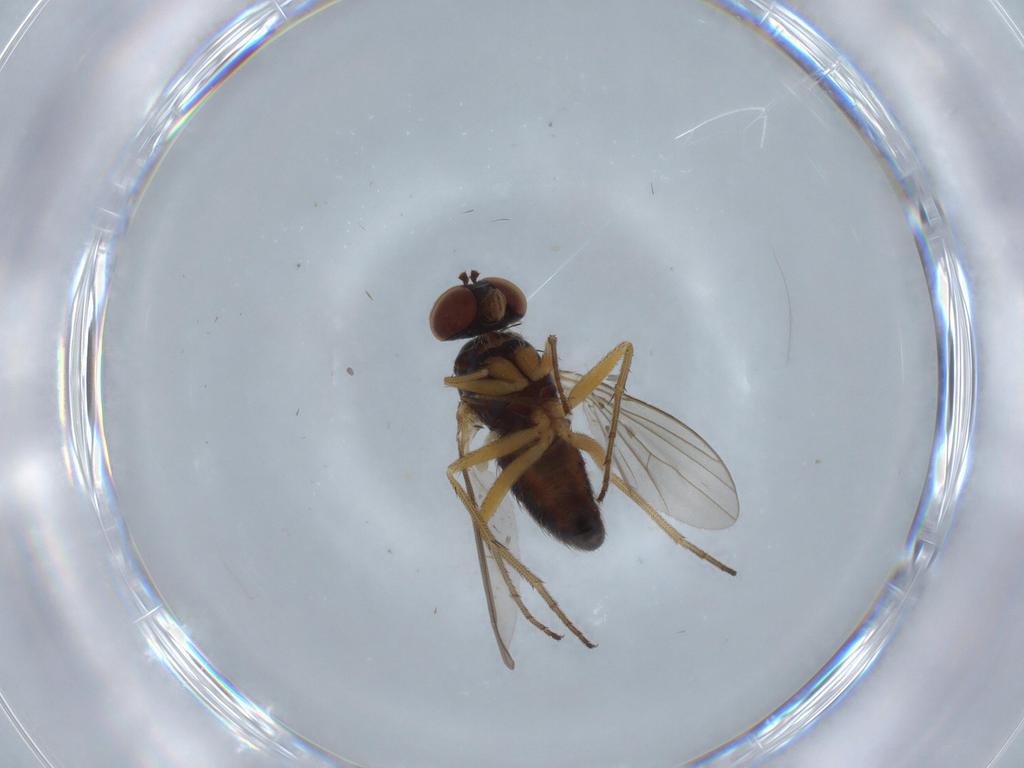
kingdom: Animalia
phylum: Arthropoda
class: Insecta
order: Diptera
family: Dolichopodidae
